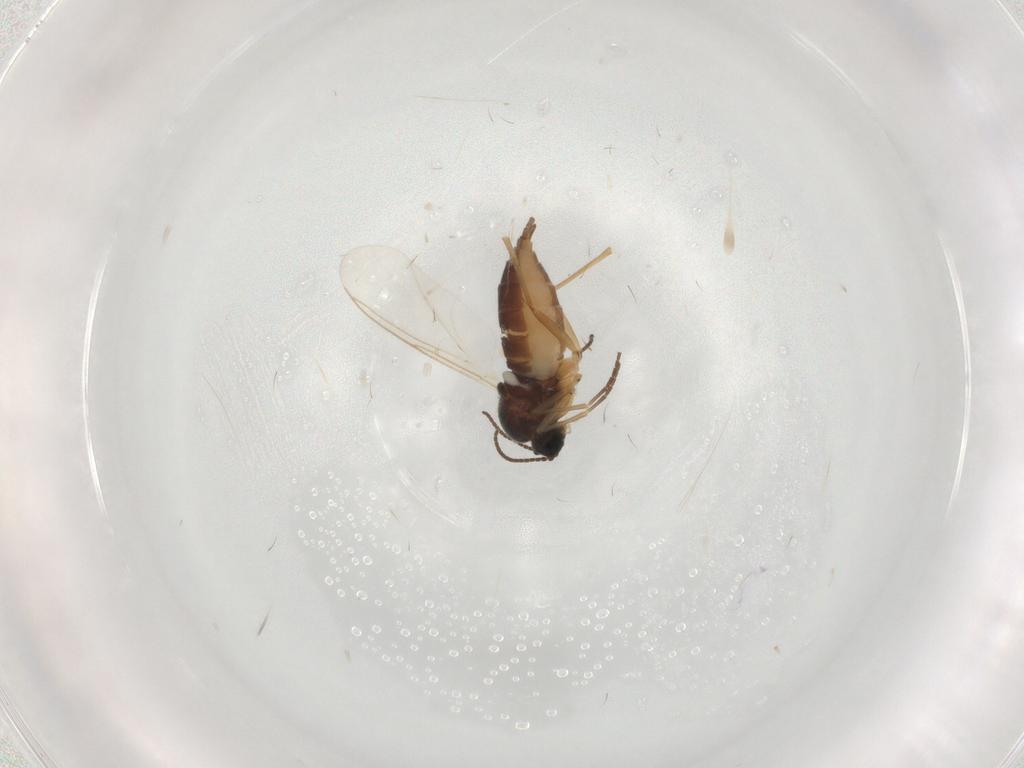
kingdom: Animalia
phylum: Arthropoda
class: Insecta
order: Diptera
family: Sciaridae
